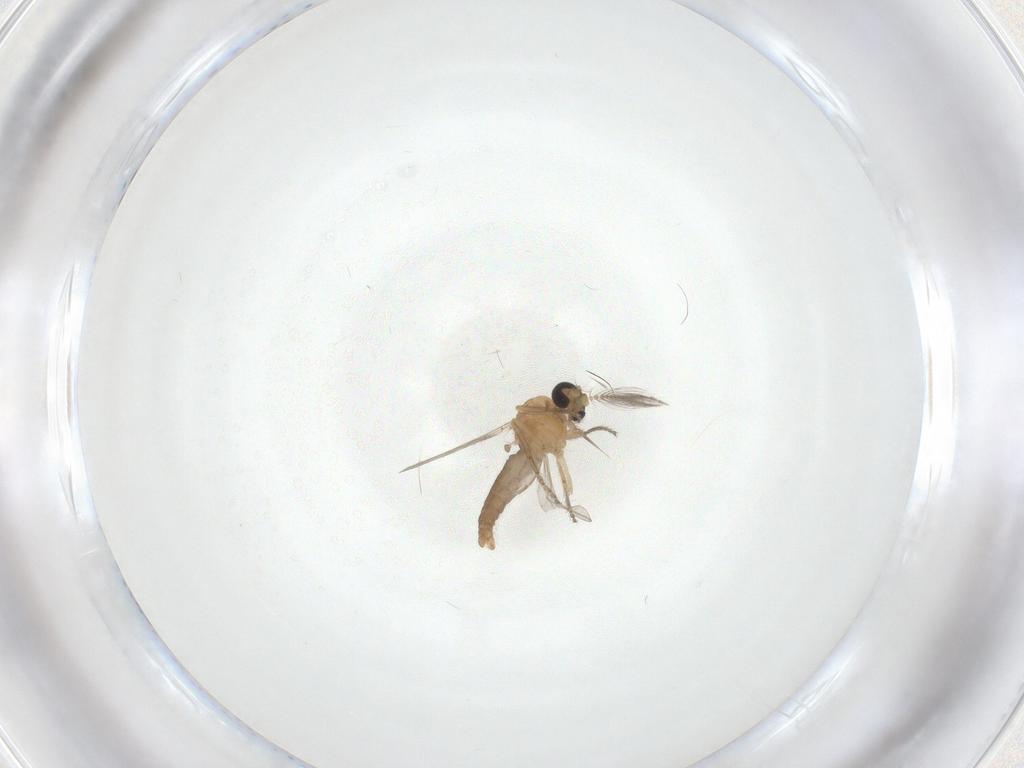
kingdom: Animalia
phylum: Arthropoda
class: Insecta
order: Diptera
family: Ceratopogonidae
